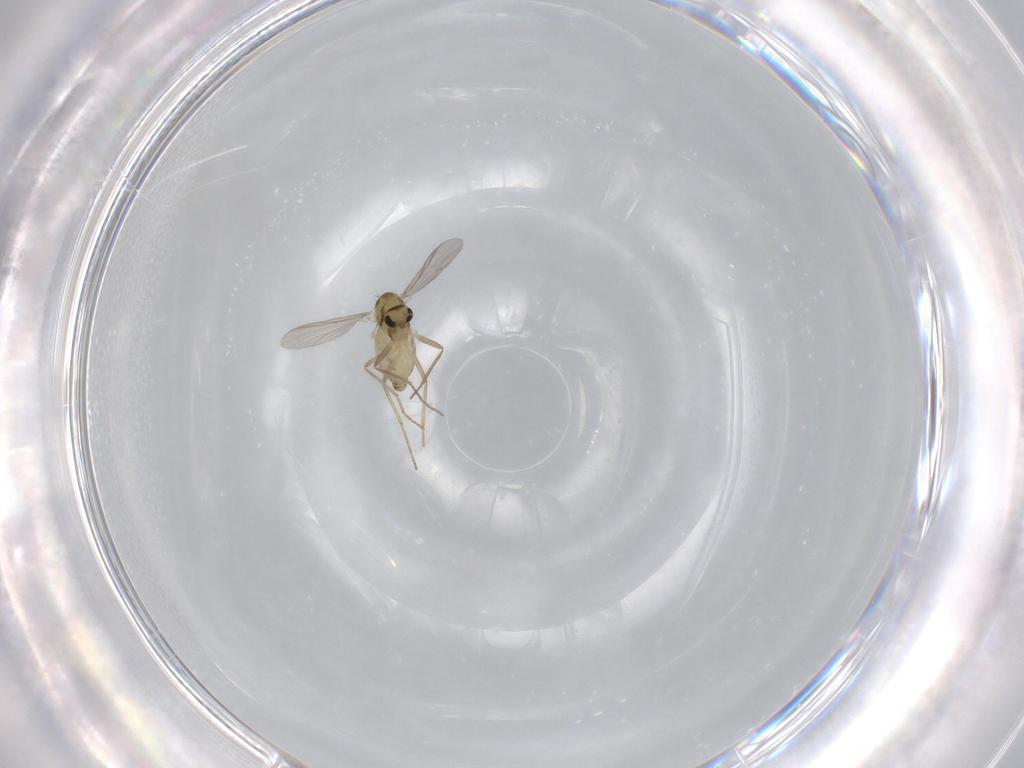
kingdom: Animalia
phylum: Arthropoda
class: Insecta
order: Diptera
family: Chironomidae
